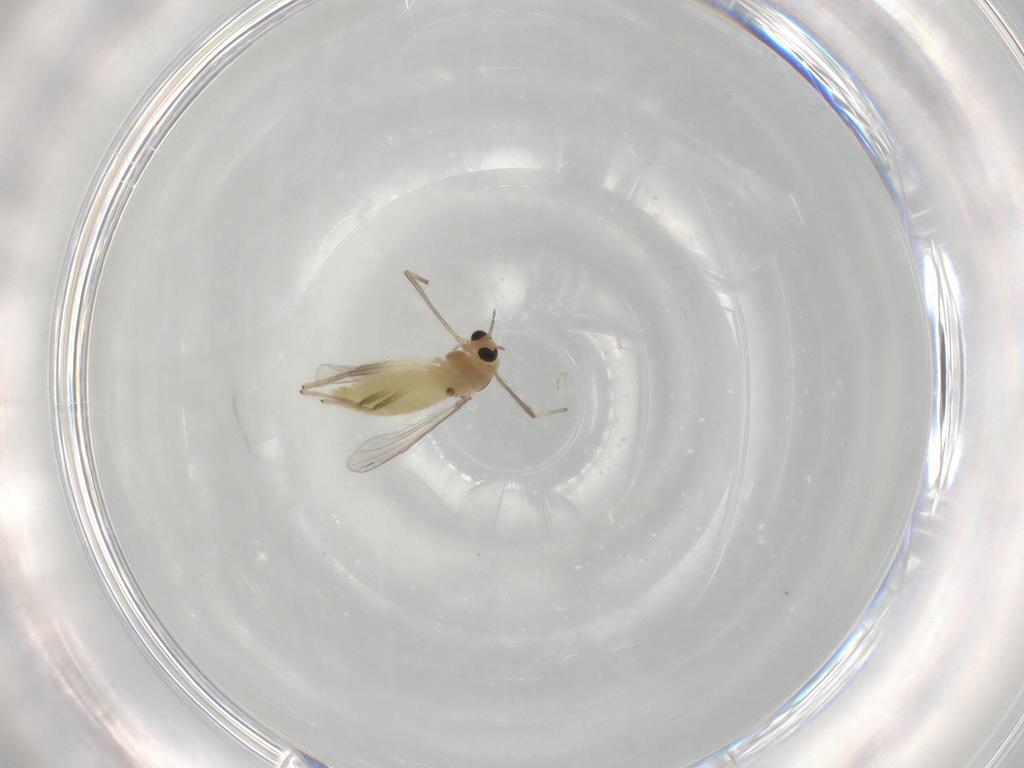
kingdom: Animalia
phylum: Arthropoda
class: Insecta
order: Diptera
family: Chironomidae
